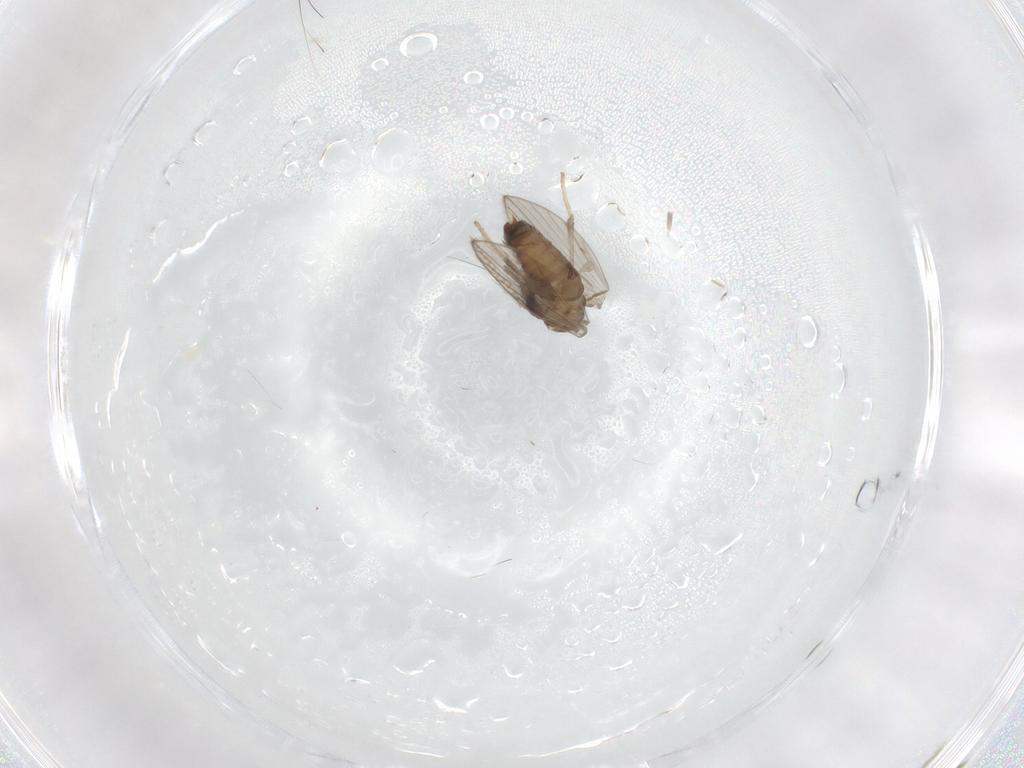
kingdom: Animalia
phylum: Arthropoda
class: Insecta
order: Diptera
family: Psychodidae
